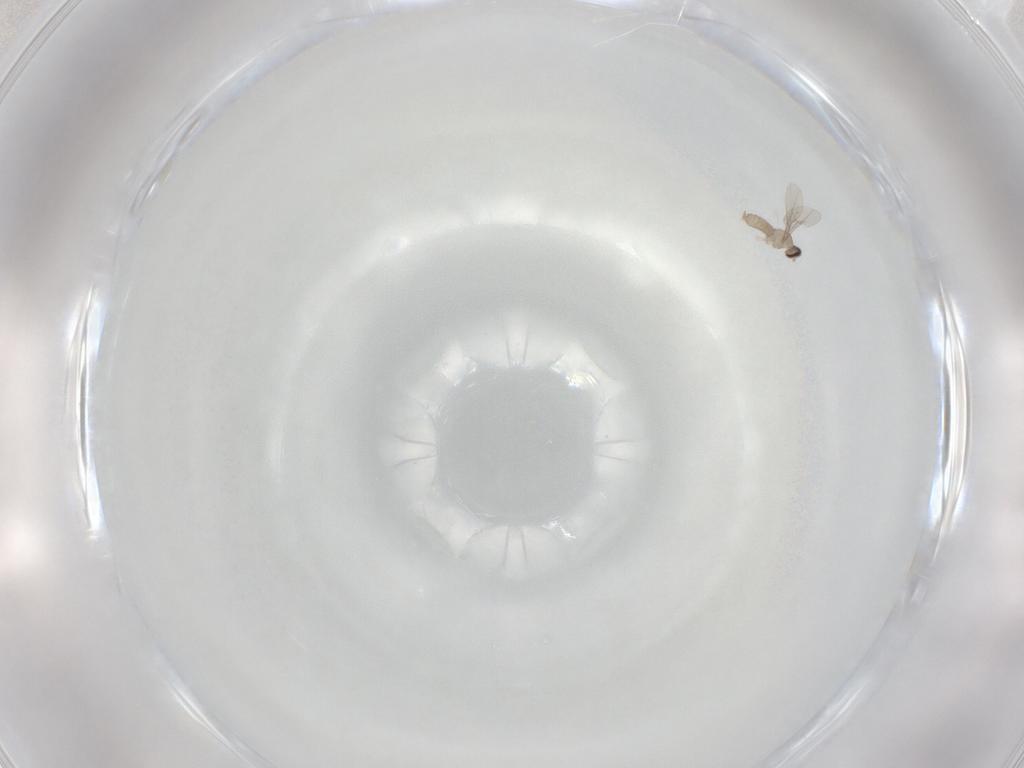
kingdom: Animalia
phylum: Arthropoda
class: Insecta
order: Diptera
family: Cecidomyiidae
